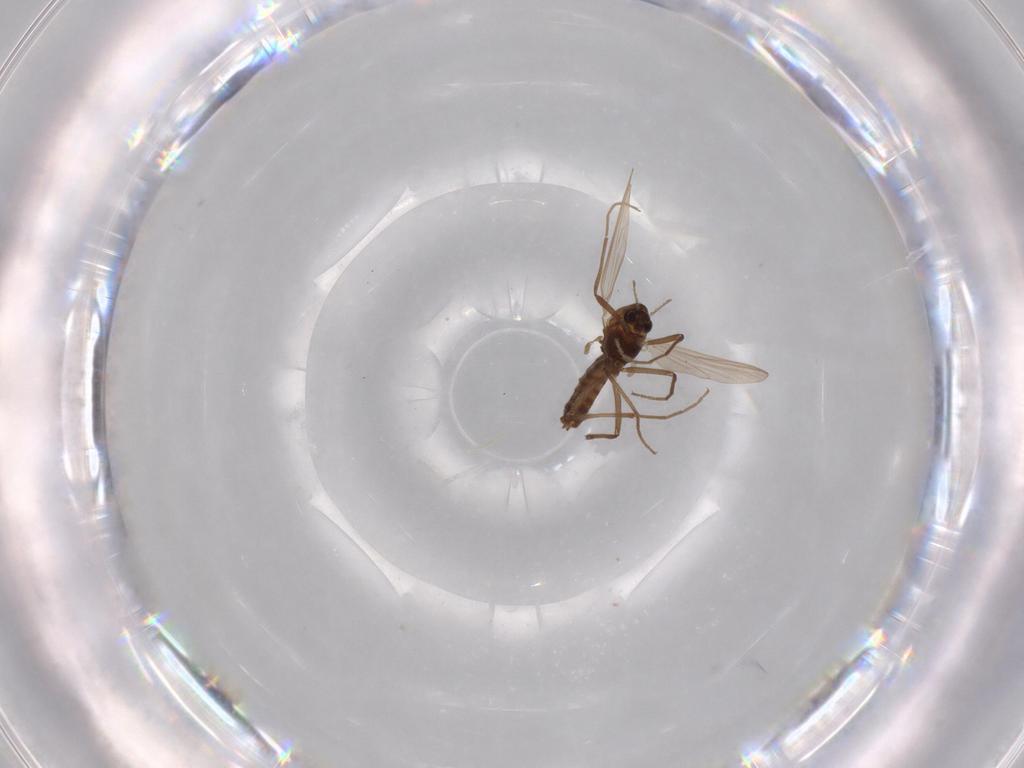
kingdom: Animalia
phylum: Arthropoda
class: Insecta
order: Diptera
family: Chironomidae
